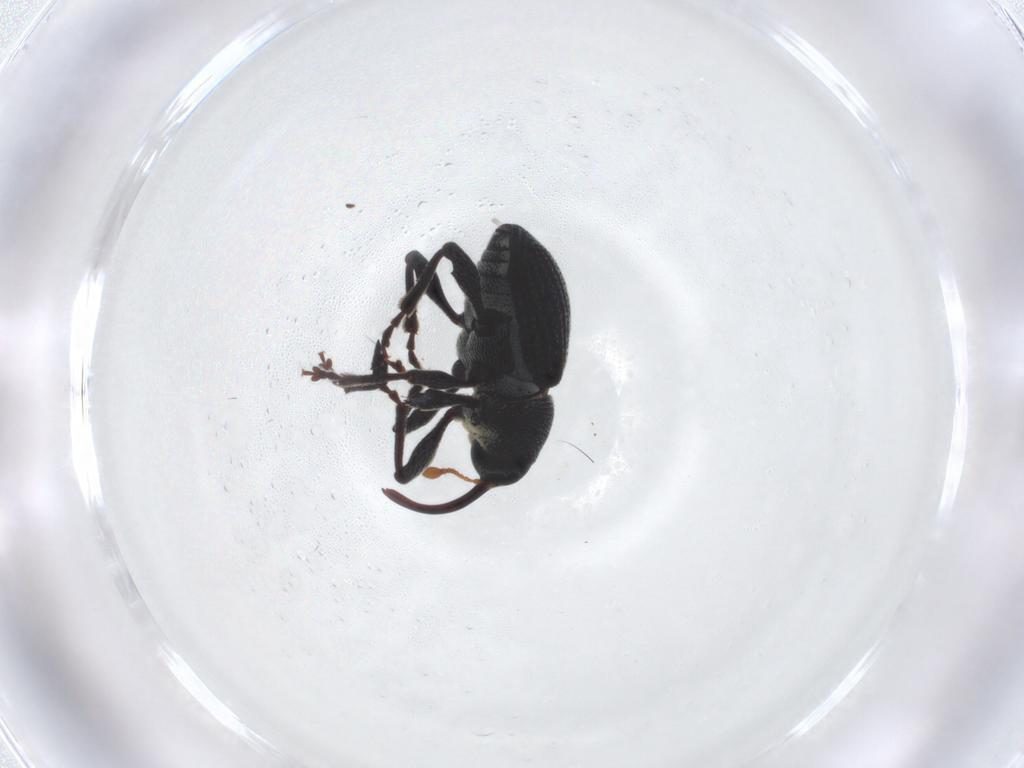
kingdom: Animalia
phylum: Arthropoda
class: Insecta
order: Coleoptera
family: Curculionidae
